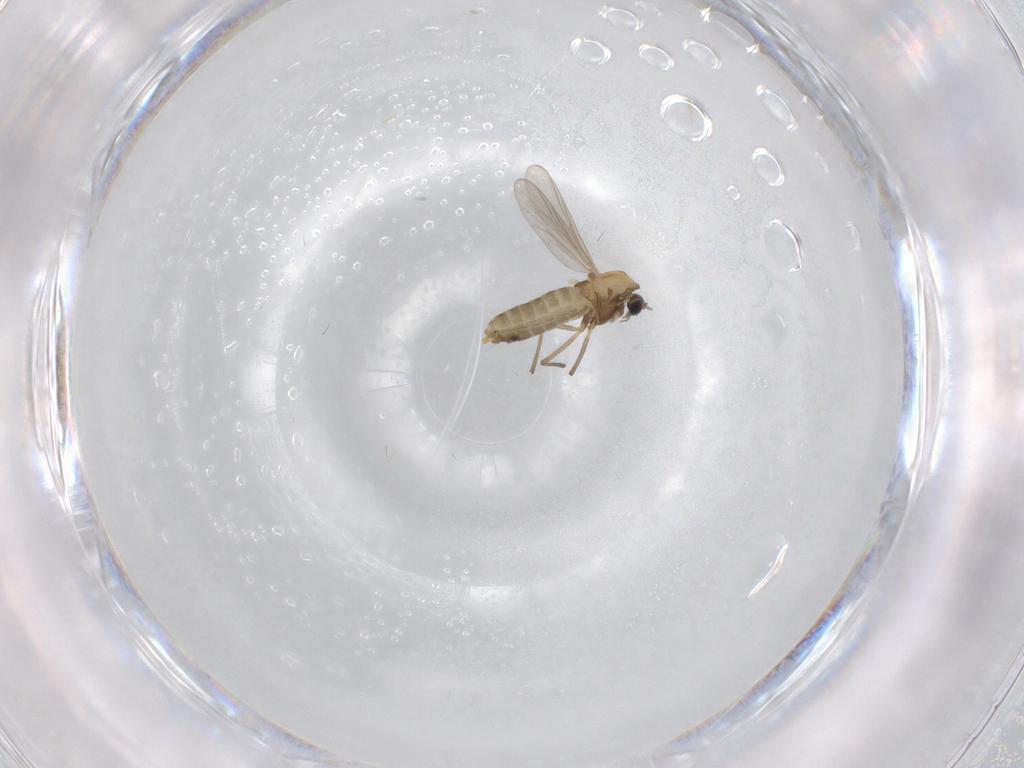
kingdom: Animalia
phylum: Arthropoda
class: Insecta
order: Diptera
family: Chironomidae
